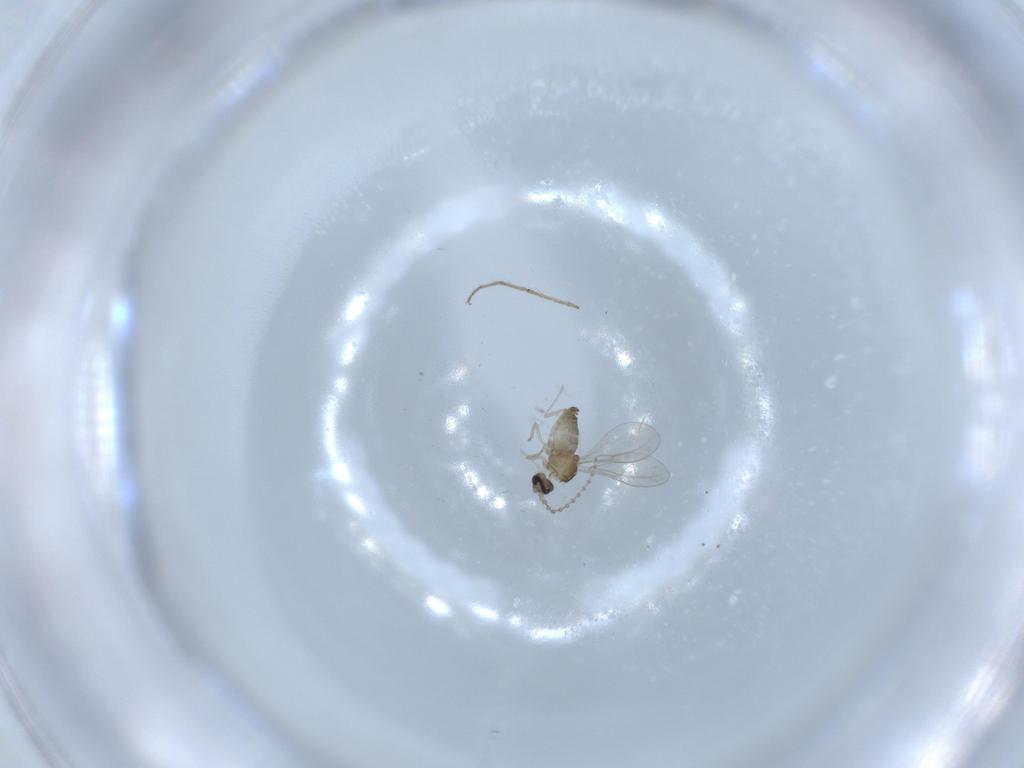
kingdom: Animalia
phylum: Arthropoda
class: Insecta
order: Diptera
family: Chironomidae
